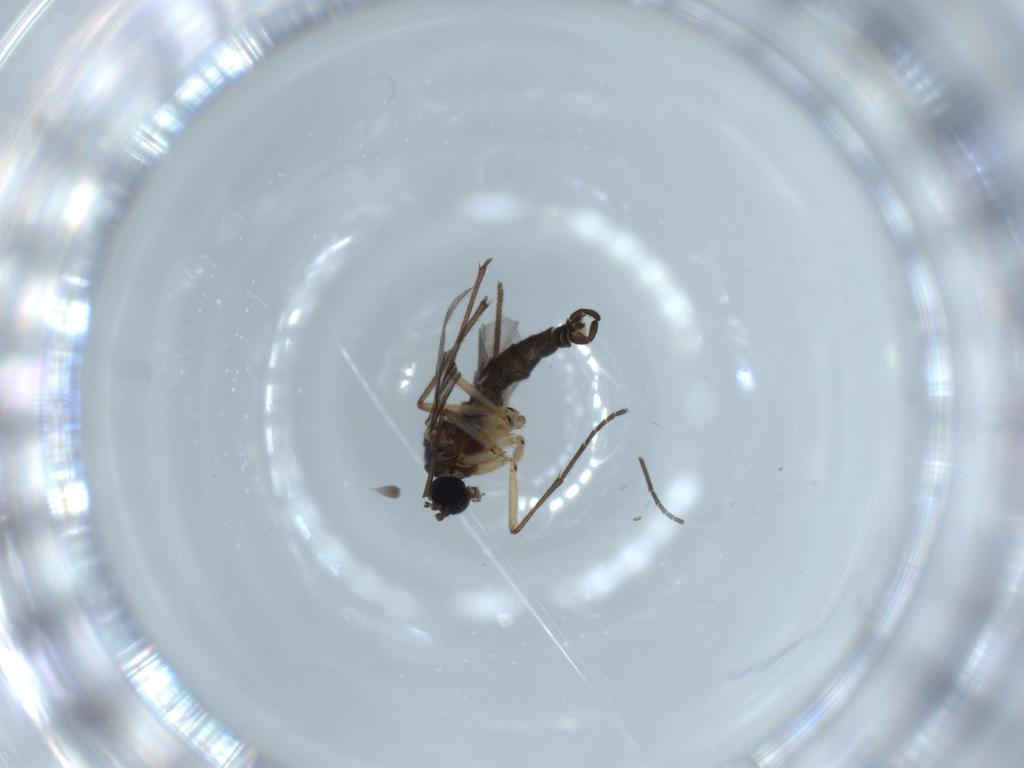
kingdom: Animalia
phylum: Arthropoda
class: Insecta
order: Diptera
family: Sciaridae
